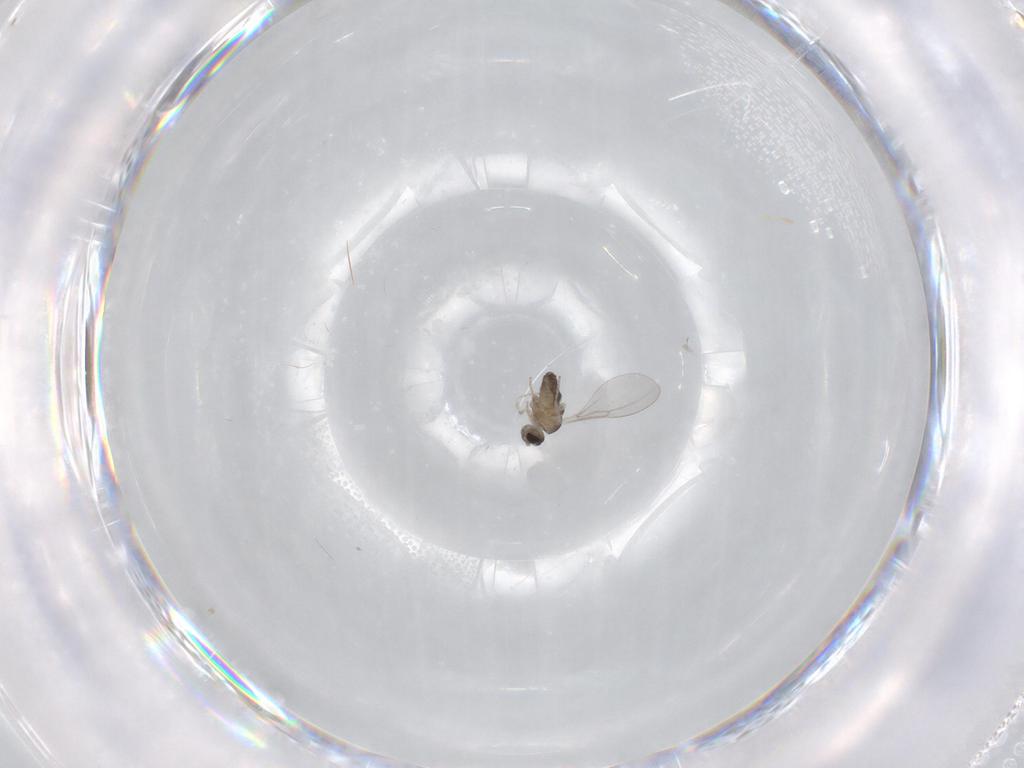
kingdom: Animalia
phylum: Arthropoda
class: Insecta
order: Diptera
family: Cecidomyiidae
